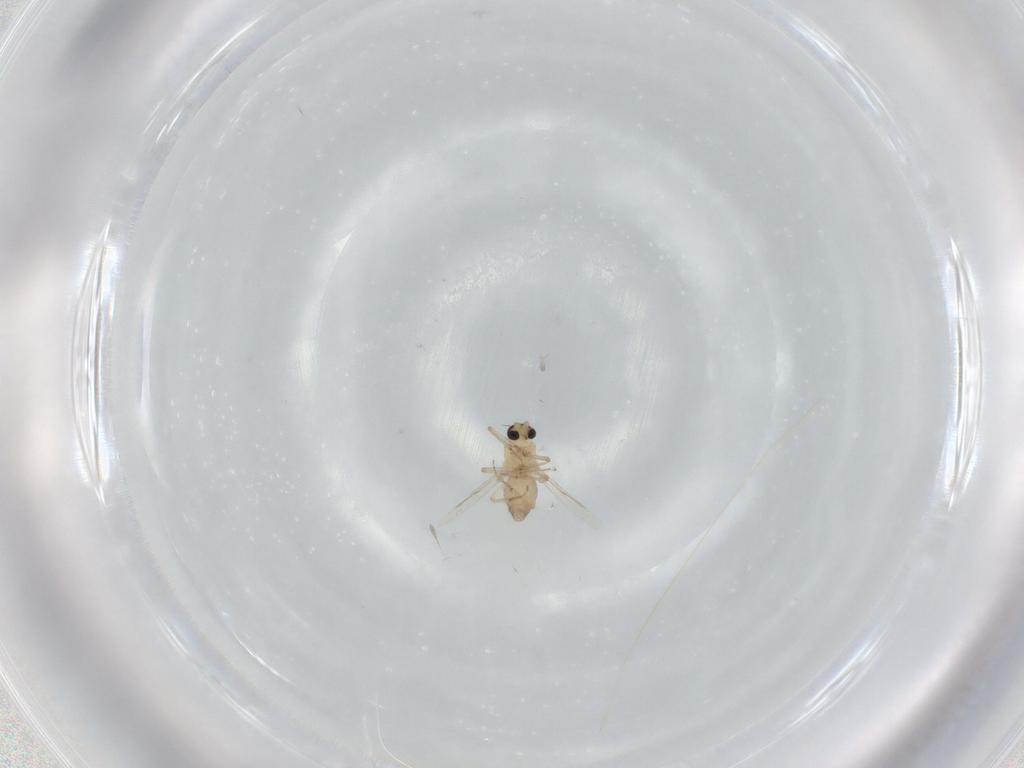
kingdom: Animalia
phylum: Arthropoda
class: Insecta
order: Diptera
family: Ceratopogonidae
